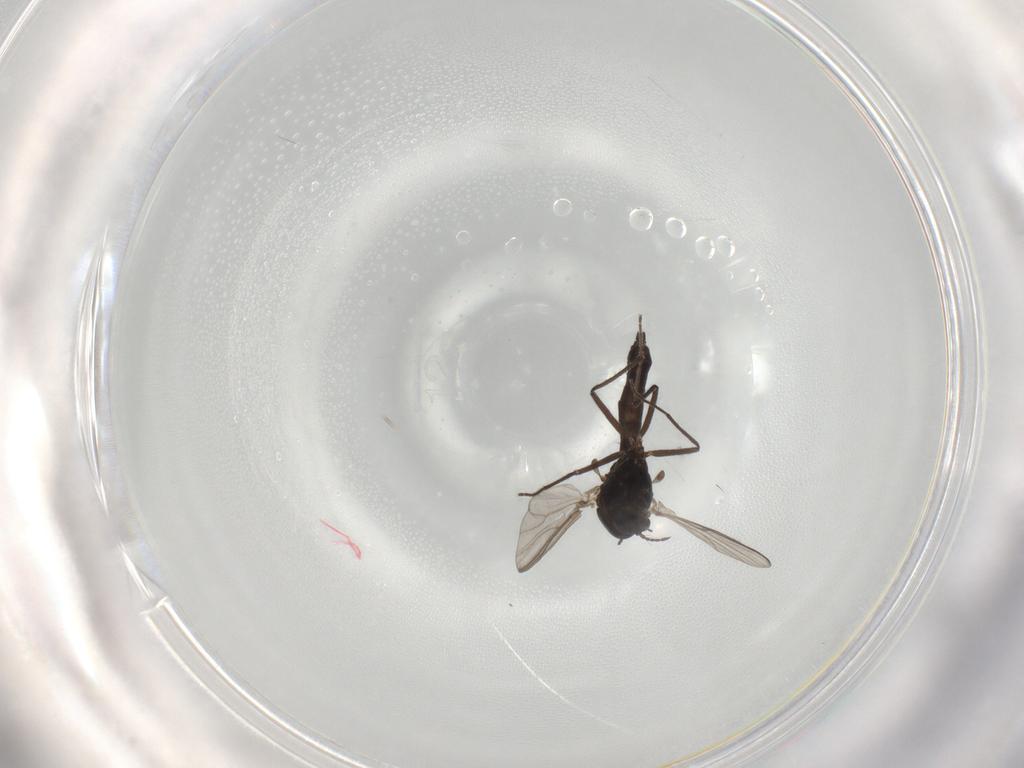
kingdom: Animalia
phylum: Arthropoda
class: Insecta
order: Diptera
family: Chironomidae
